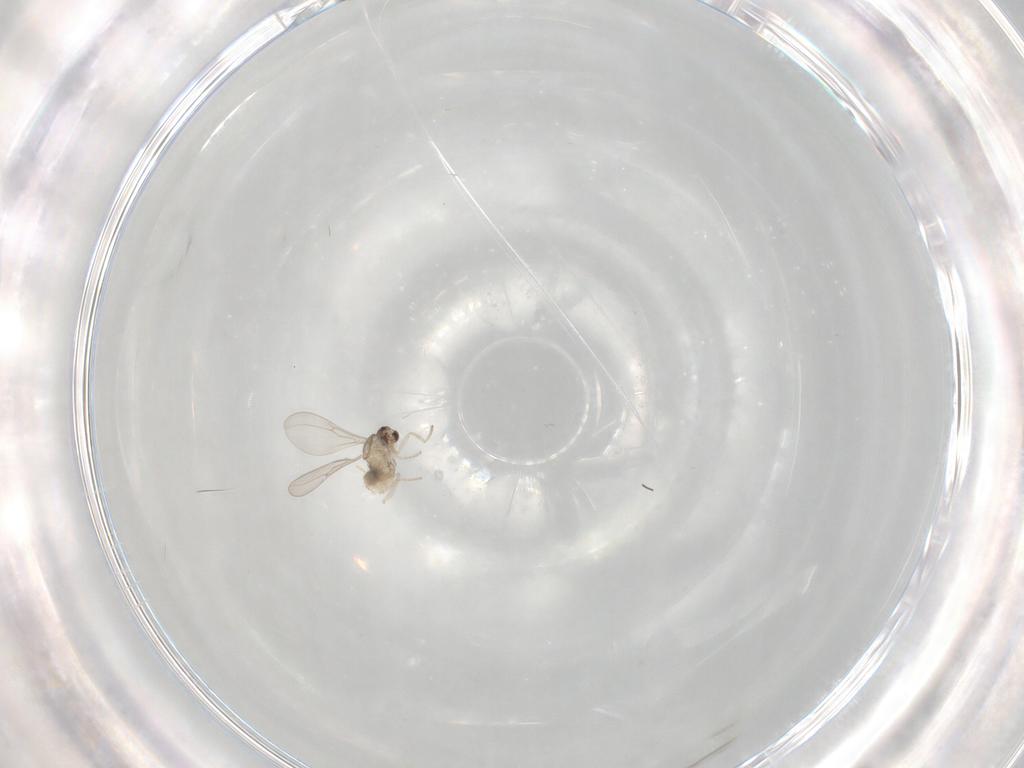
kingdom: Animalia
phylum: Arthropoda
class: Insecta
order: Diptera
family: Cecidomyiidae
